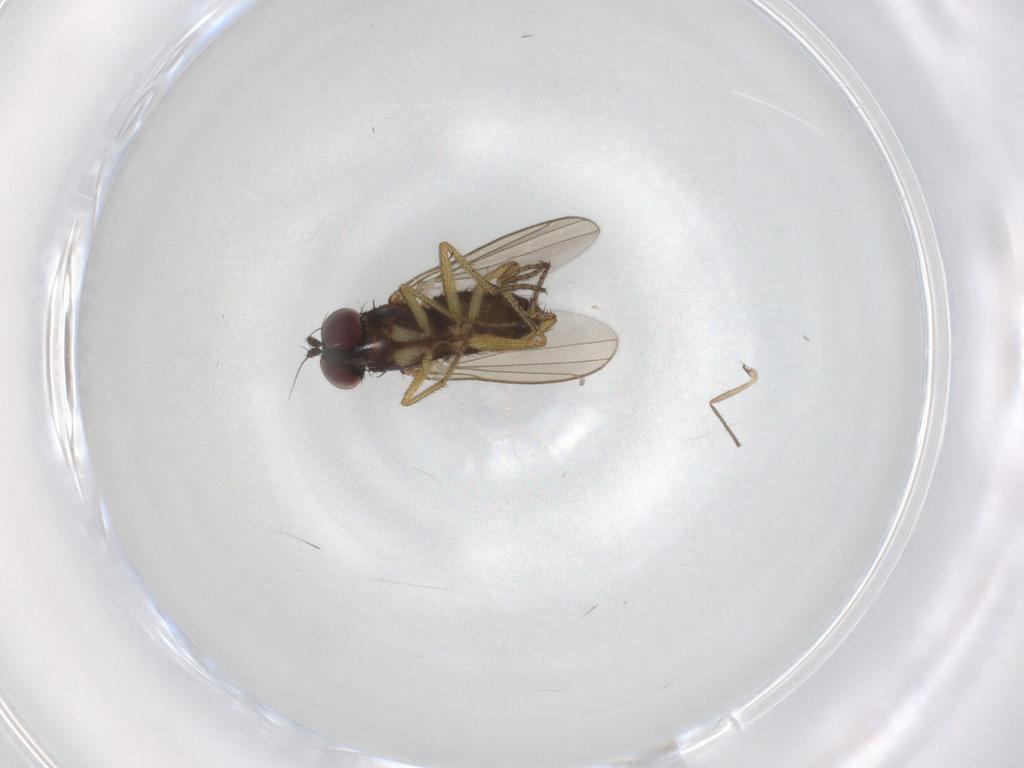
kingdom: Animalia
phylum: Arthropoda
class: Insecta
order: Diptera
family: Chironomidae
